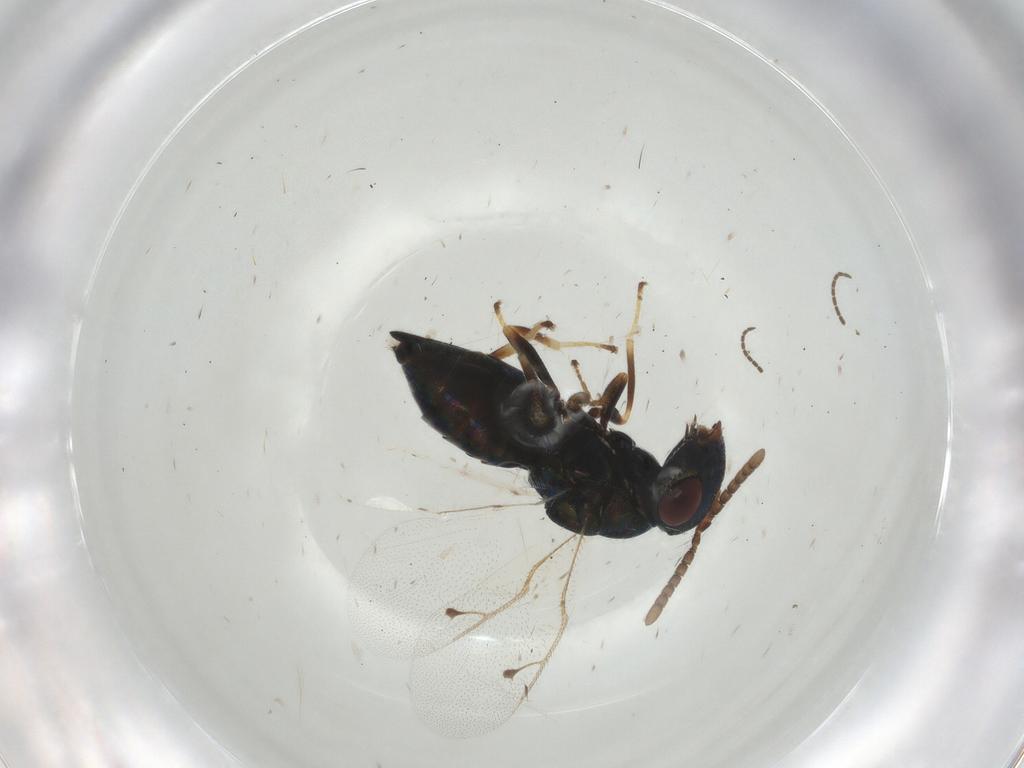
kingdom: Animalia
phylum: Arthropoda
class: Insecta
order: Hymenoptera
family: Pteromalidae
